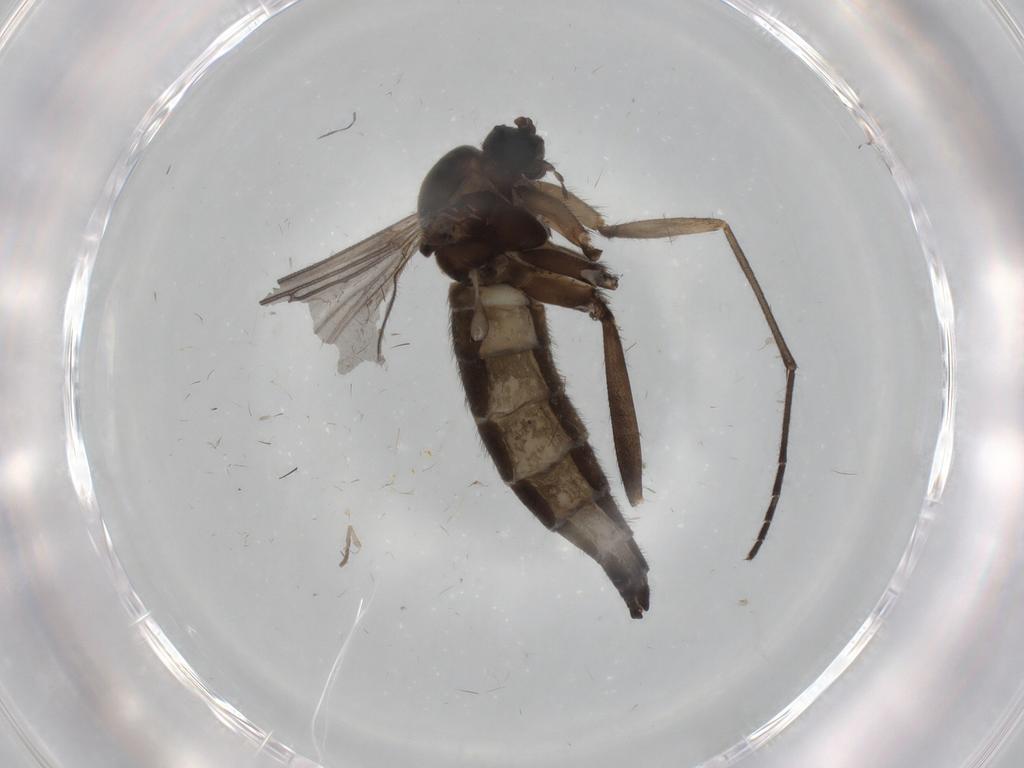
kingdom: Animalia
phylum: Arthropoda
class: Insecta
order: Diptera
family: Sciaridae
